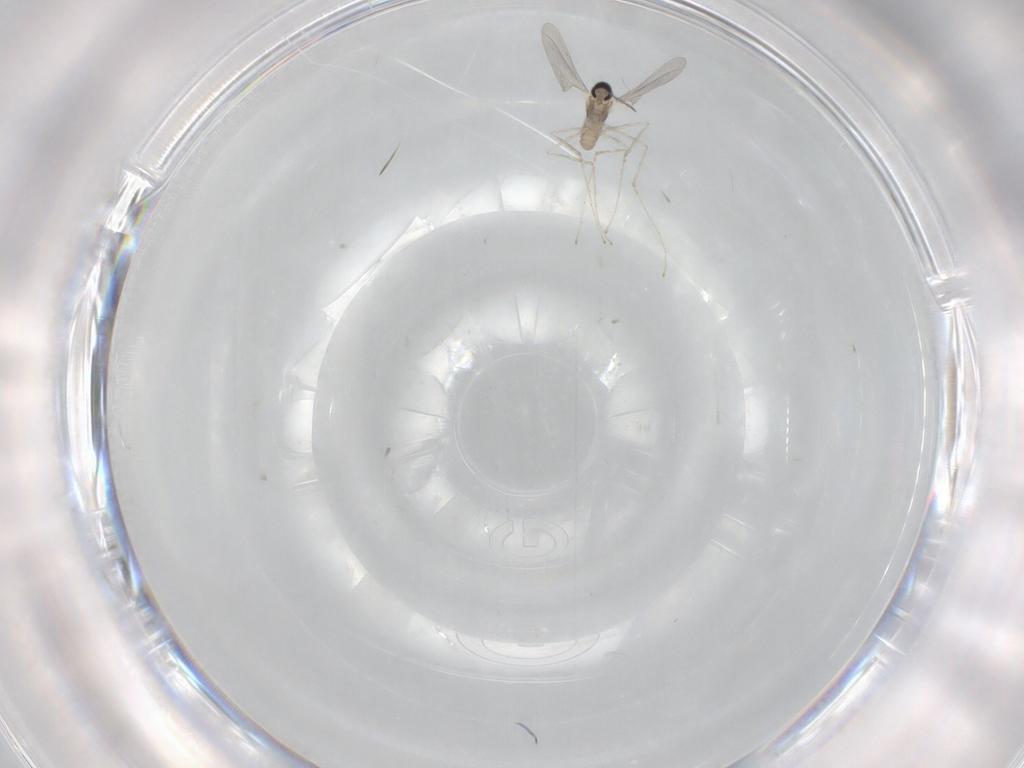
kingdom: Animalia
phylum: Arthropoda
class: Insecta
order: Diptera
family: Cecidomyiidae
